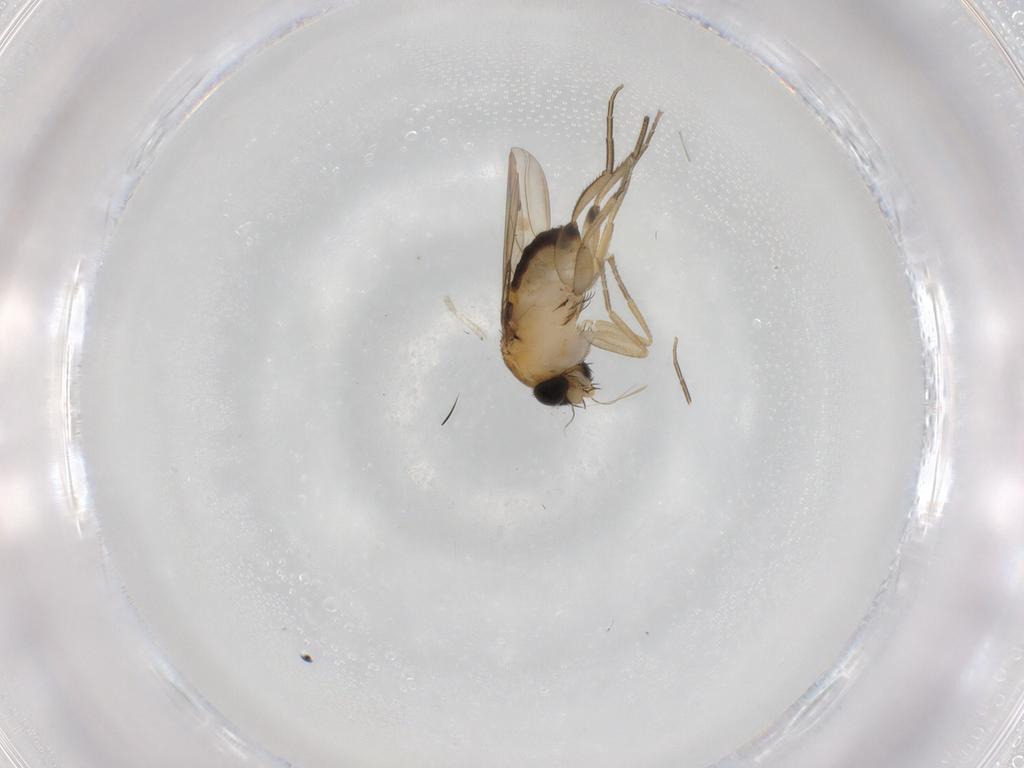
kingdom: Animalia
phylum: Arthropoda
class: Insecta
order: Diptera
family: Phoridae
